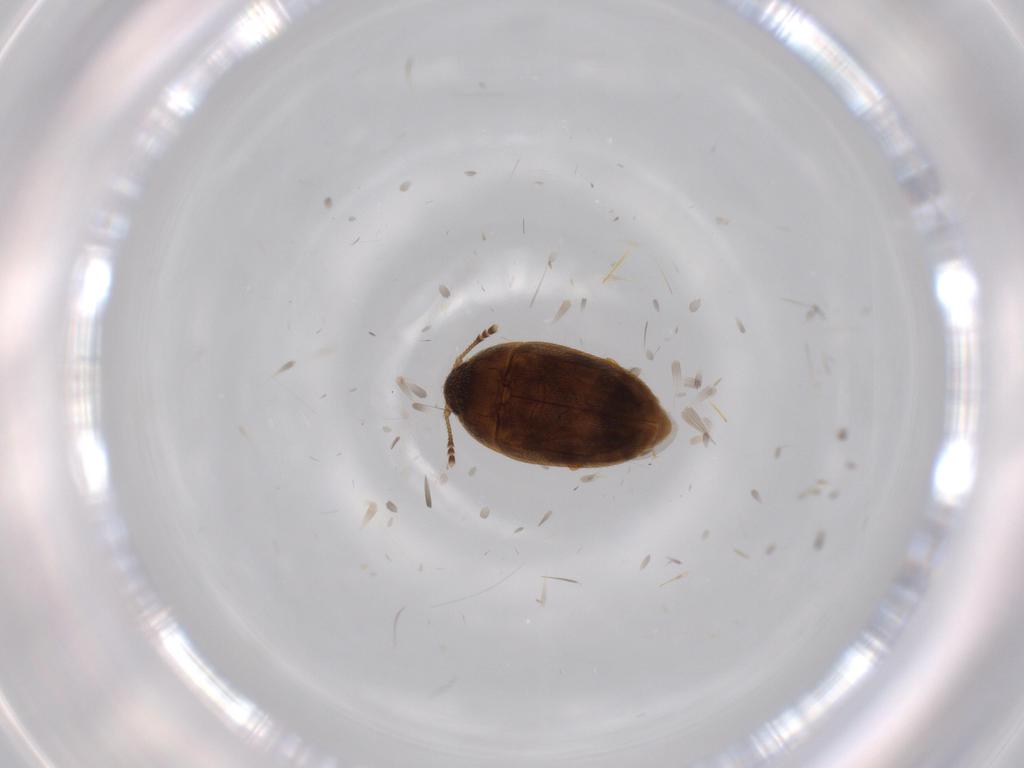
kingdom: Animalia
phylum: Arthropoda
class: Insecta
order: Coleoptera
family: Mycetophagidae
